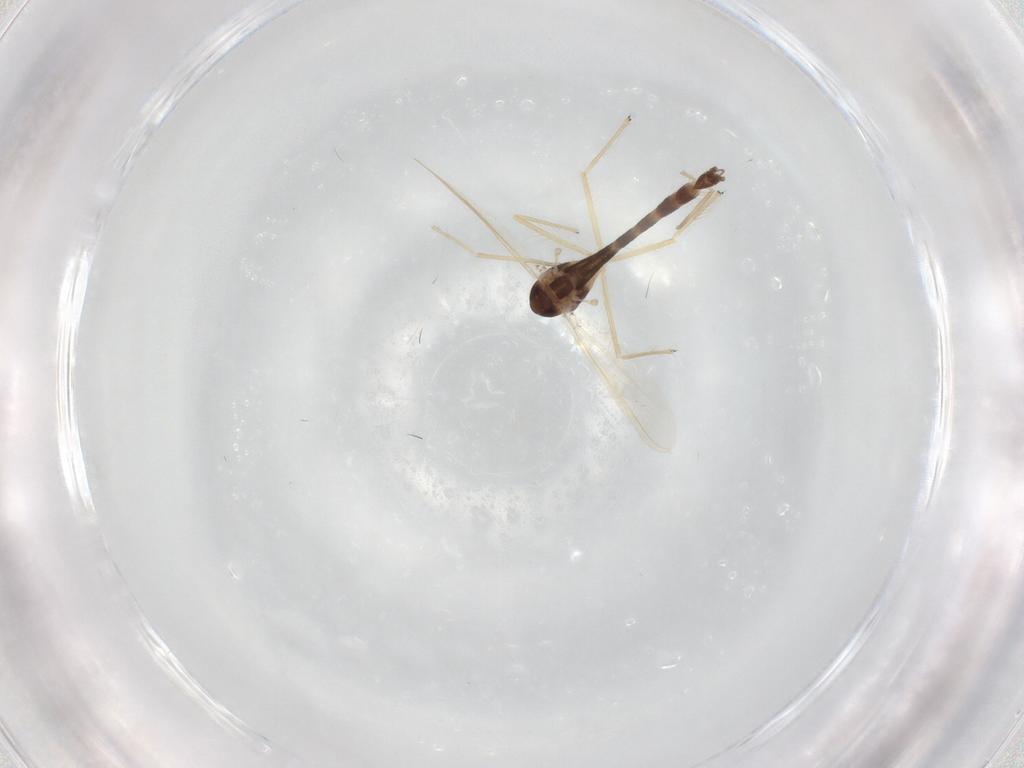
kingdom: Animalia
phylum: Arthropoda
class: Insecta
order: Diptera
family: Chironomidae
